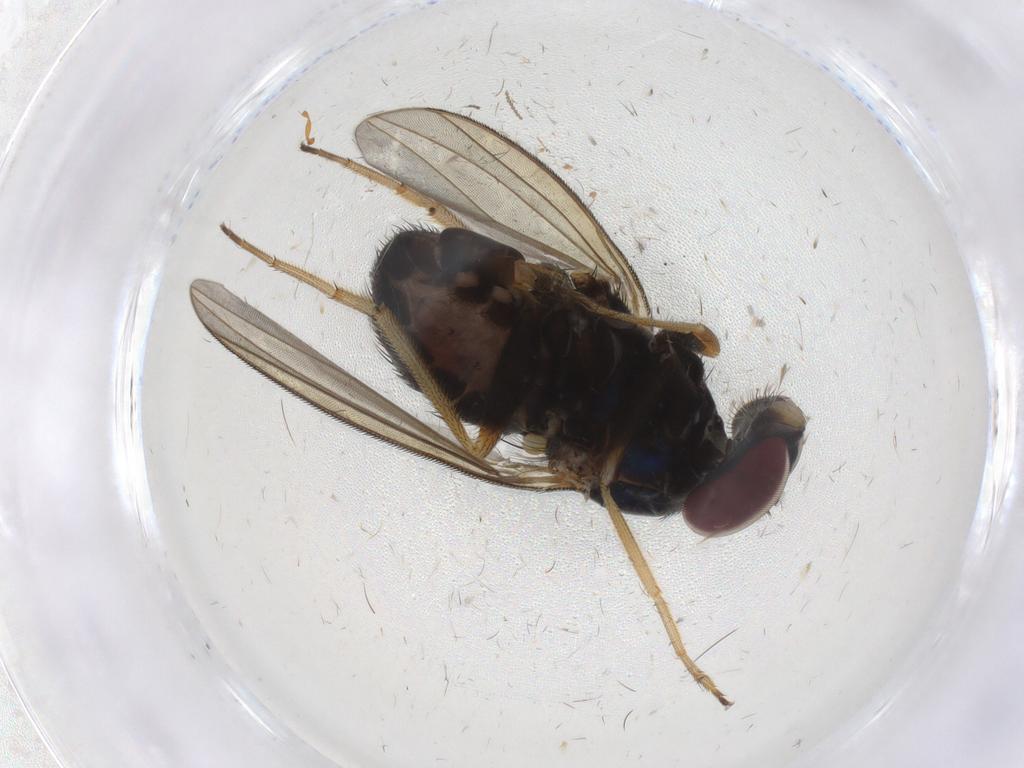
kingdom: Animalia
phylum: Arthropoda
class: Insecta
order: Diptera
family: Dolichopodidae
